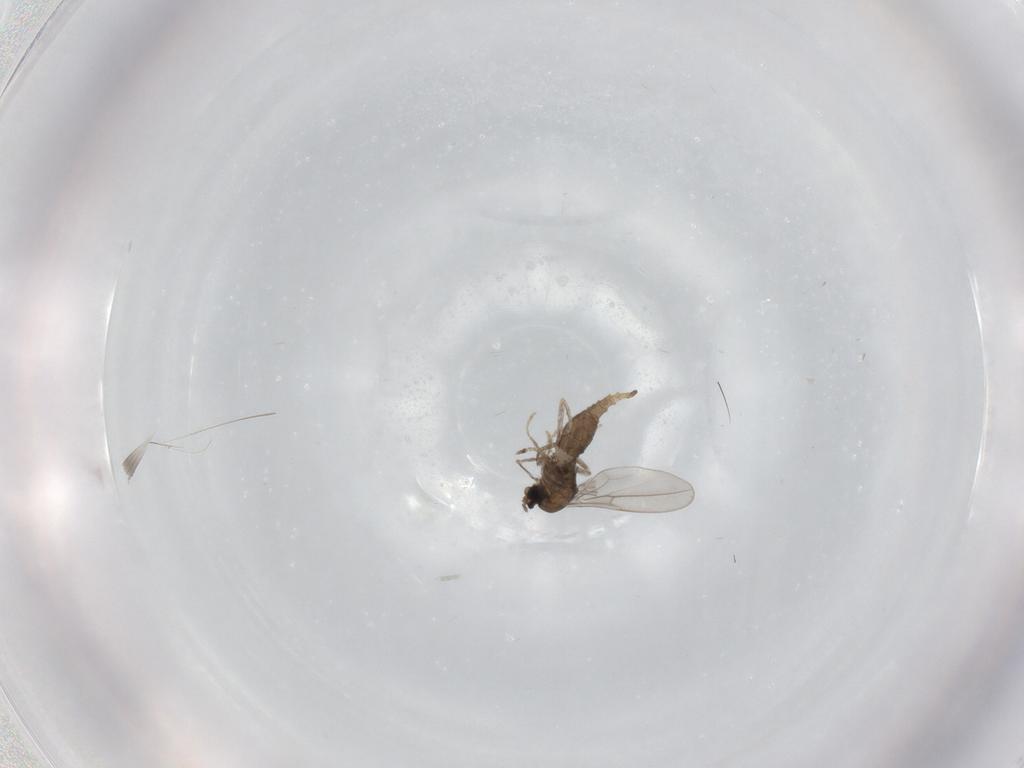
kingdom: Animalia
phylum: Arthropoda
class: Insecta
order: Diptera
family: Cecidomyiidae
